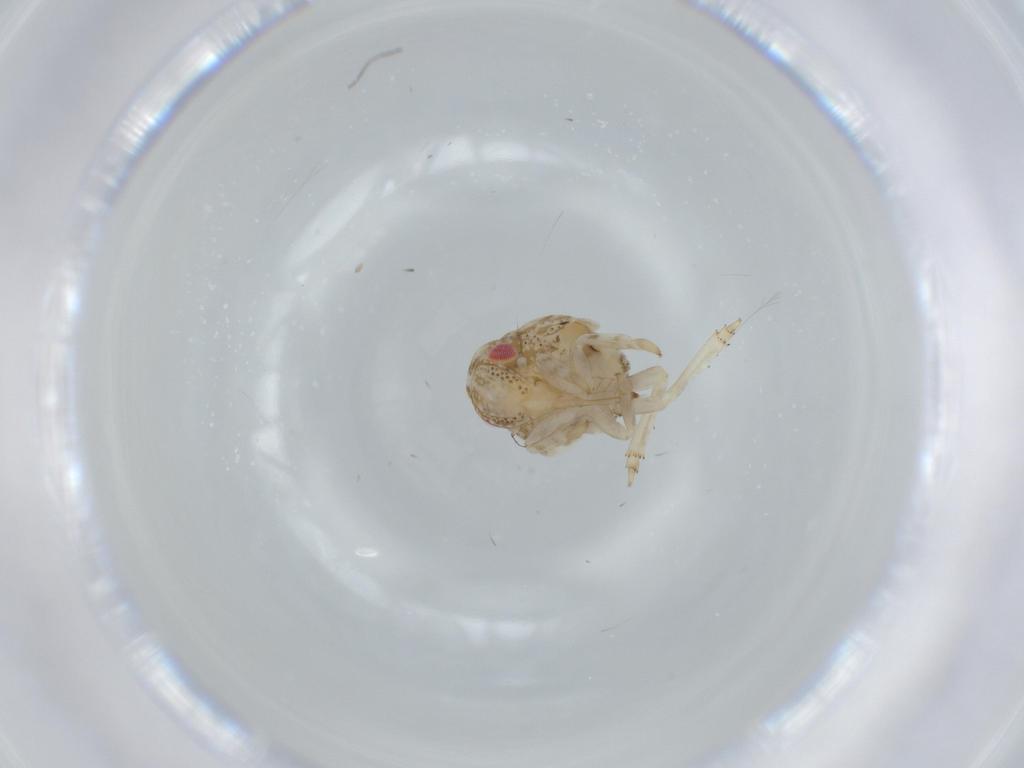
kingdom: Animalia
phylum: Arthropoda
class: Insecta
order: Hemiptera
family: Acanaloniidae
